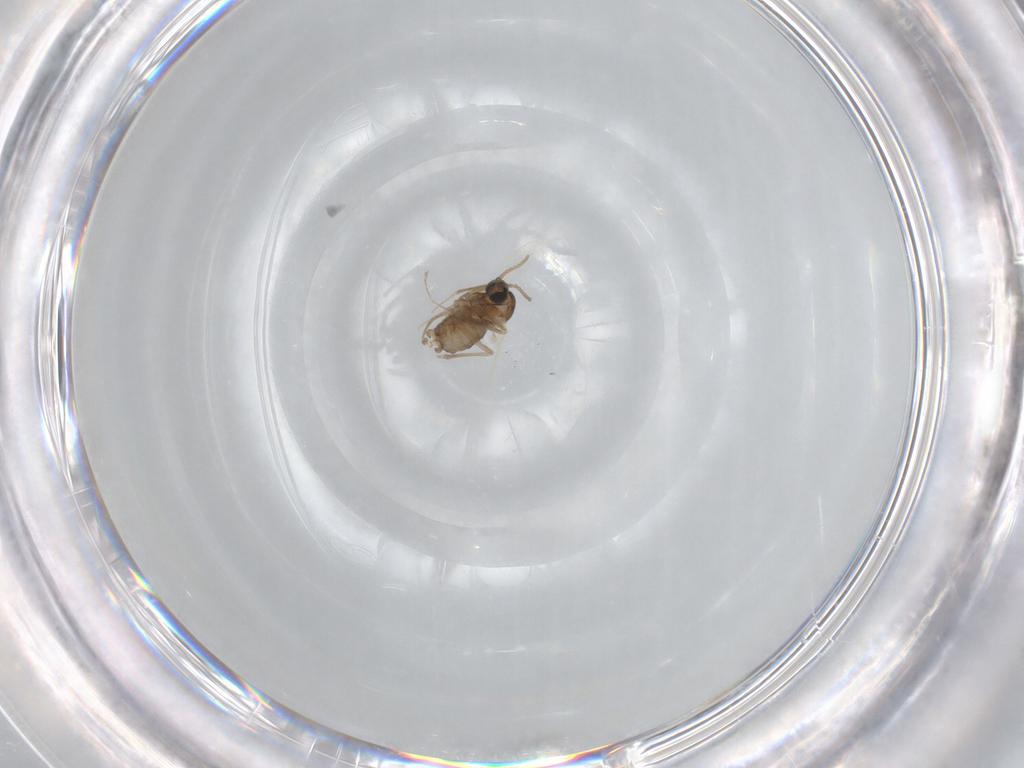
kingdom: Animalia
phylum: Arthropoda
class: Insecta
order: Diptera
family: Cecidomyiidae
